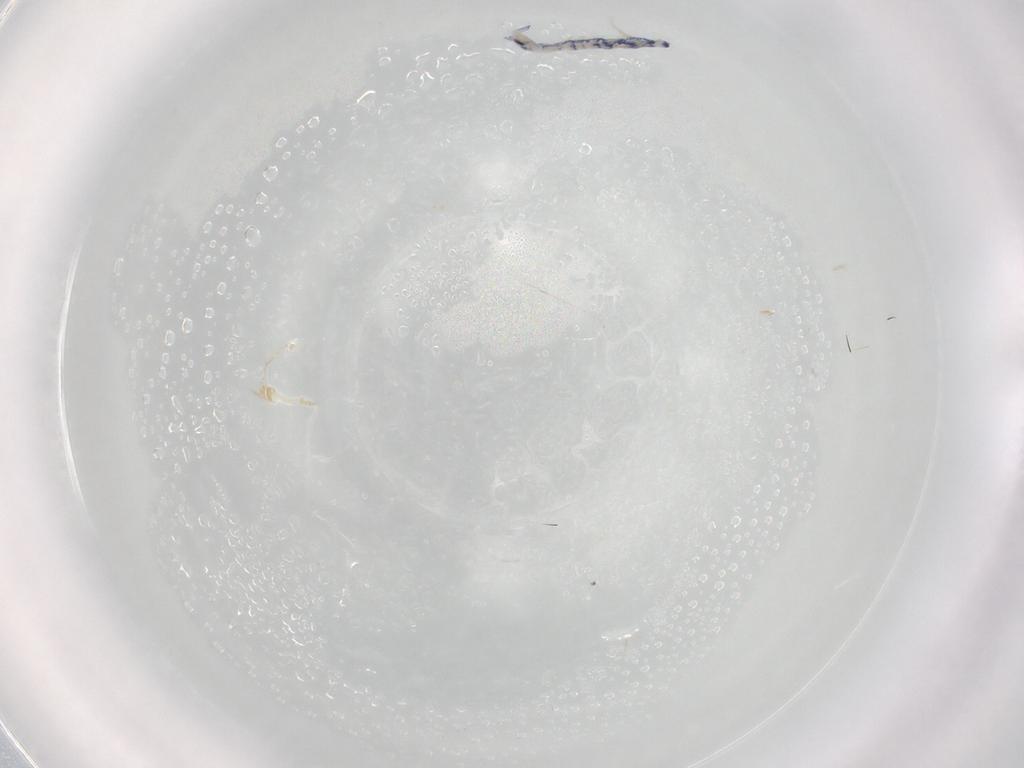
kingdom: Animalia
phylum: Arthropoda
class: Collembola
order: Entomobryomorpha
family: Entomobryidae
